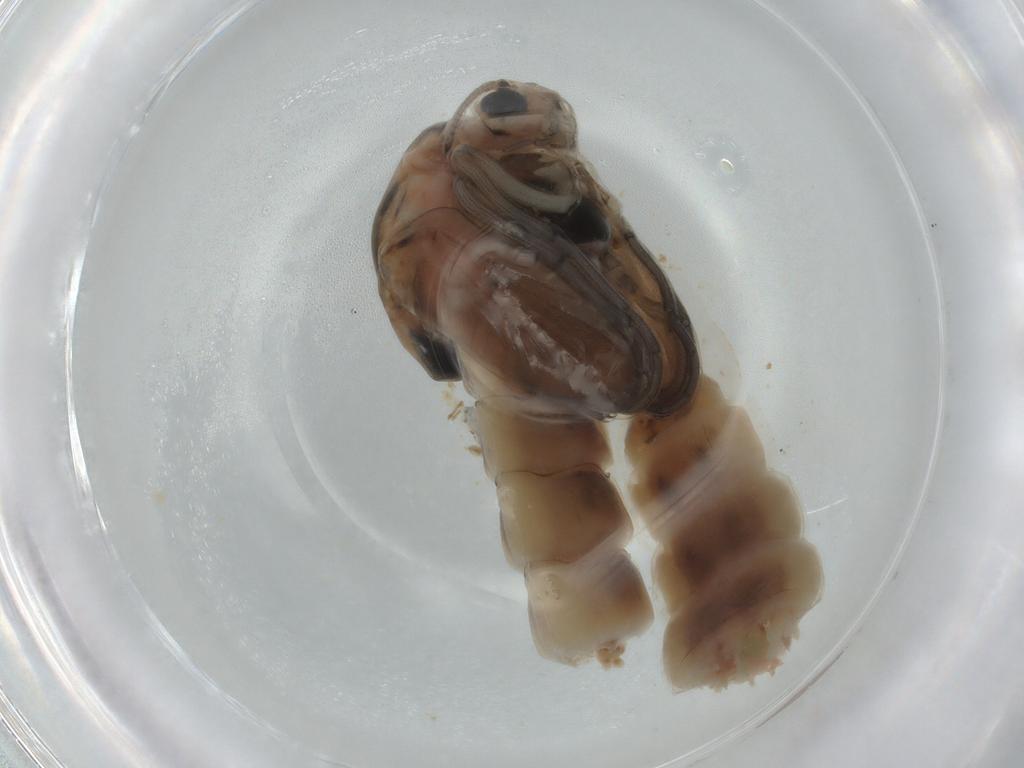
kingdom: Animalia
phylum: Arthropoda
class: Insecta
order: Diptera
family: Chironomidae
